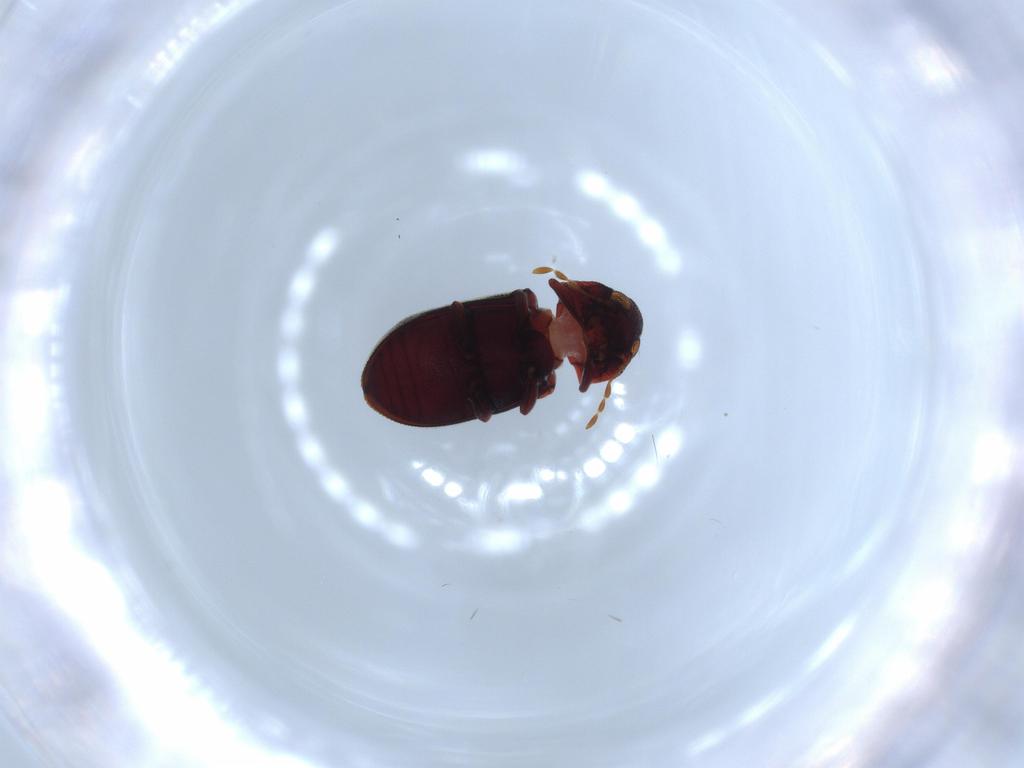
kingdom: Animalia
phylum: Arthropoda
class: Insecta
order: Coleoptera
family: Anobiidae
